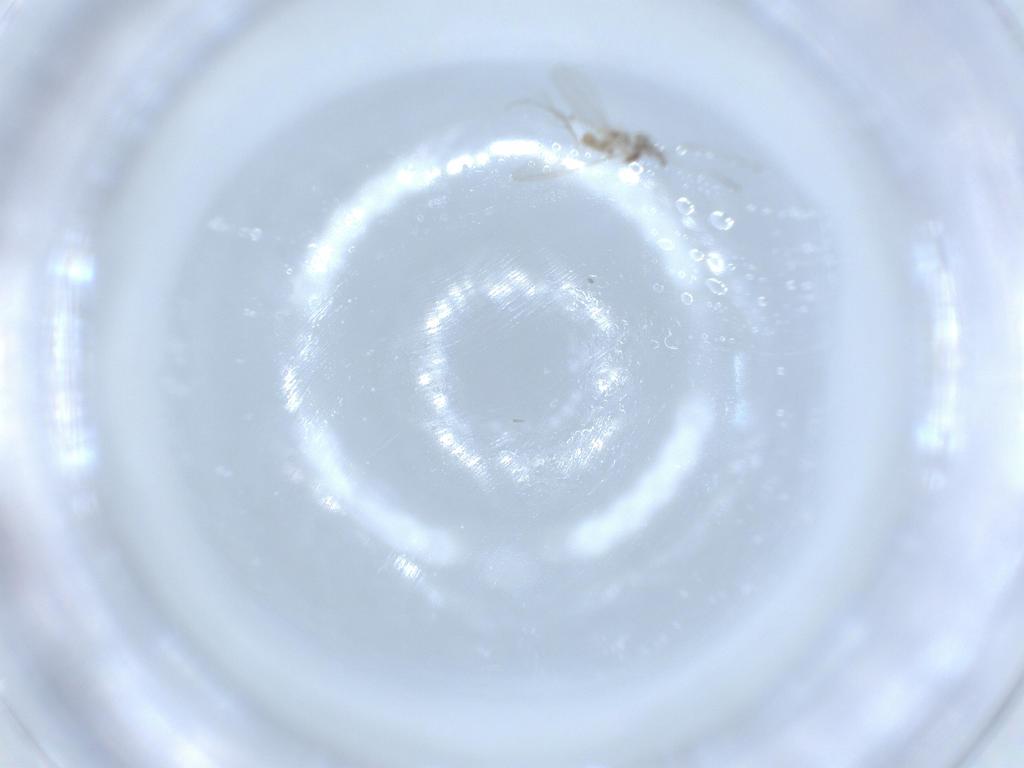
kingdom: Animalia
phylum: Arthropoda
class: Insecta
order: Diptera
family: Cecidomyiidae
